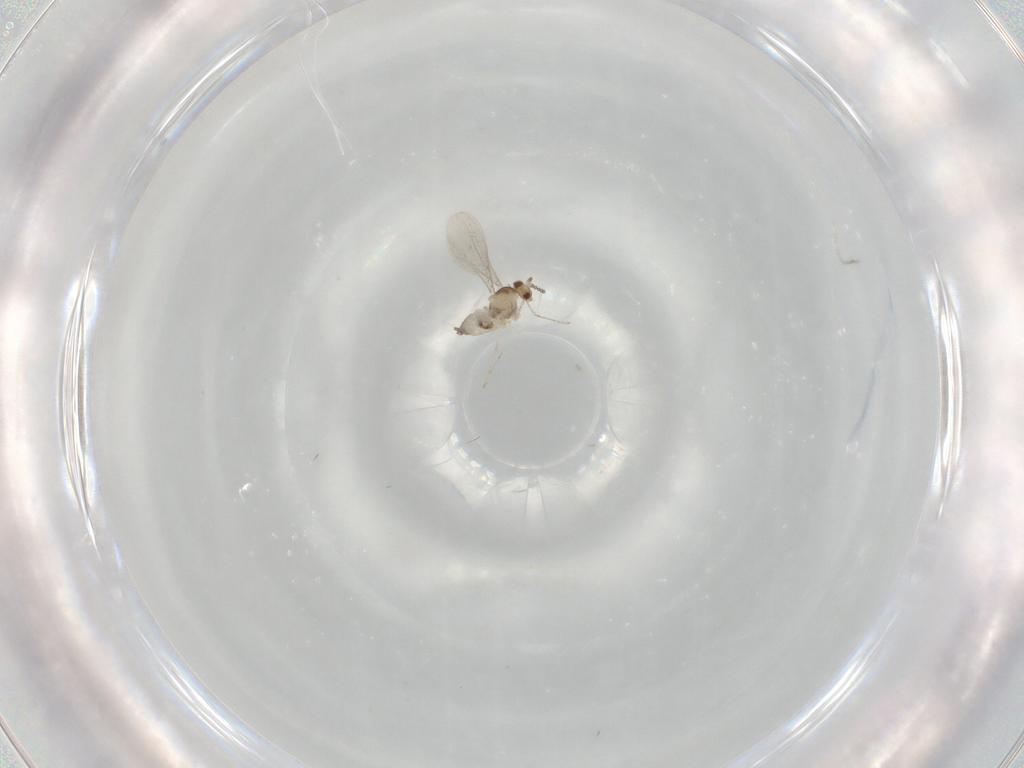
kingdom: Animalia
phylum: Arthropoda
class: Insecta
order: Diptera
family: Cecidomyiidae
